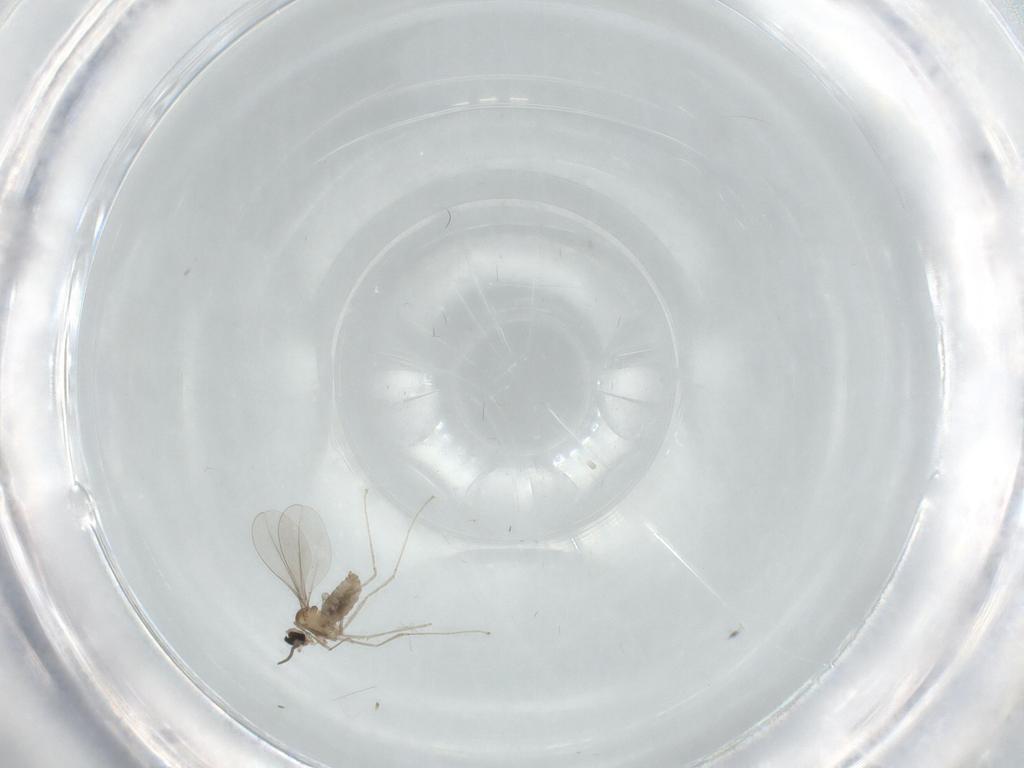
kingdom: Animalia
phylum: Arthropoda
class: Insecta
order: Diptera
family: Cecidomyiidae
